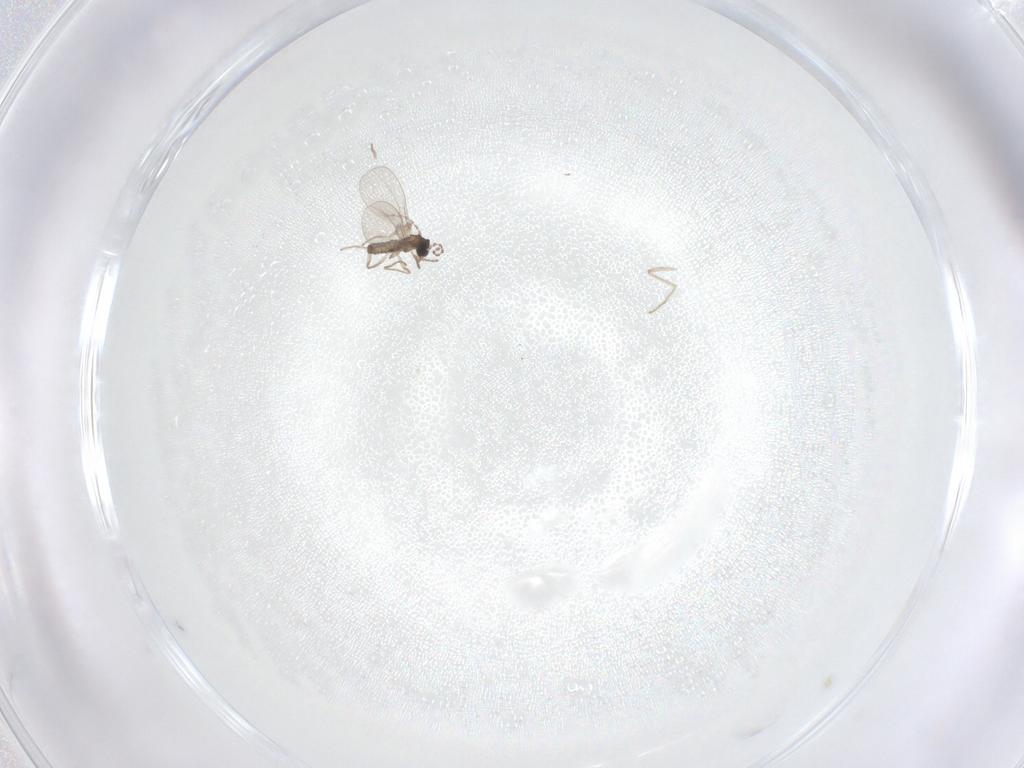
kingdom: Animalia
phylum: Arthropoda
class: Insecta
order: Diptera
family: Cecidomyiidae
